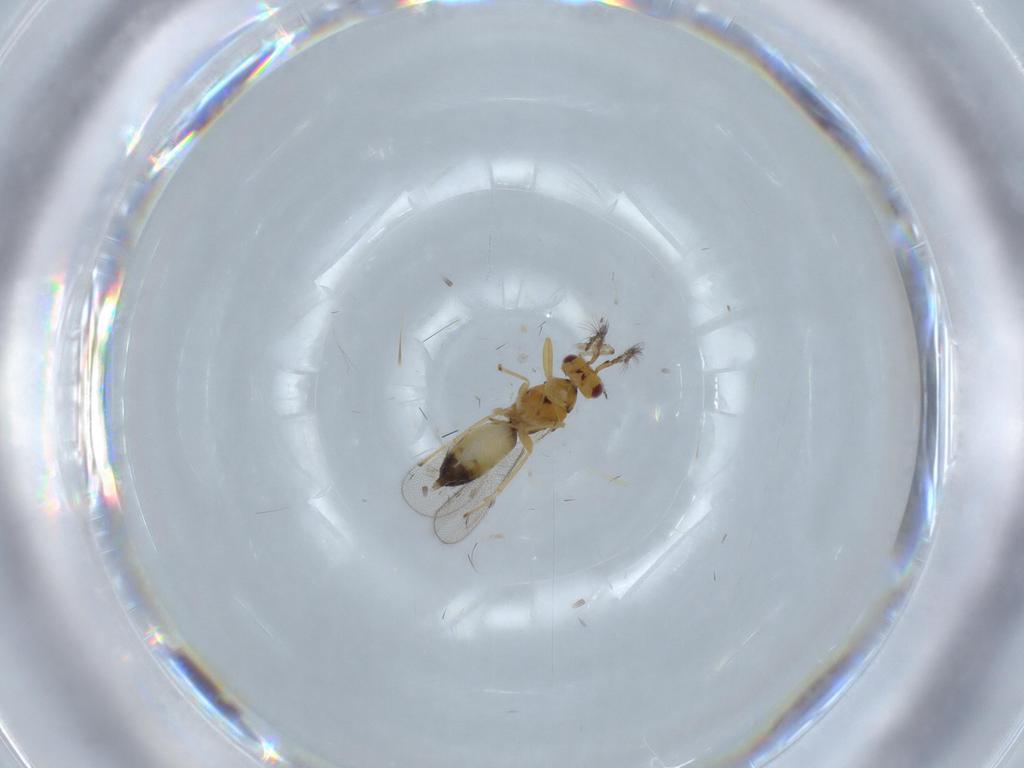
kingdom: Animalia
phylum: Arthropoda
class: Insecta
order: Hymenoptera
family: Eulophidae
